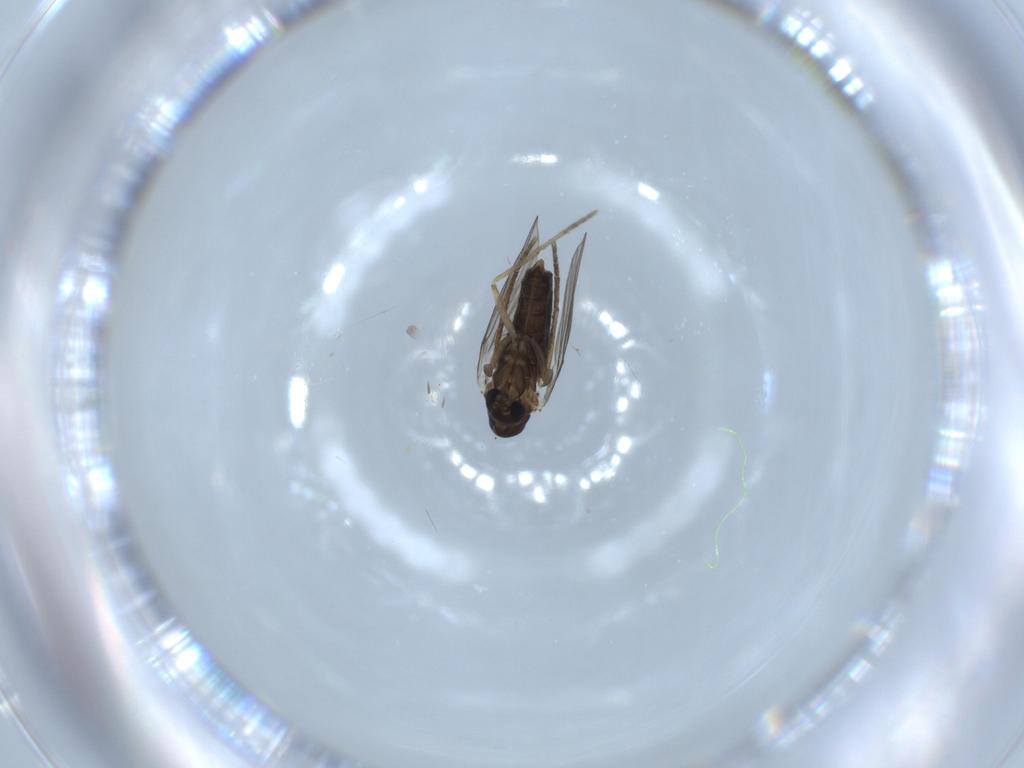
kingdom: Animalia
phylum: Arthropoda
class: Insecta
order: Diptera
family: Psychodidae
